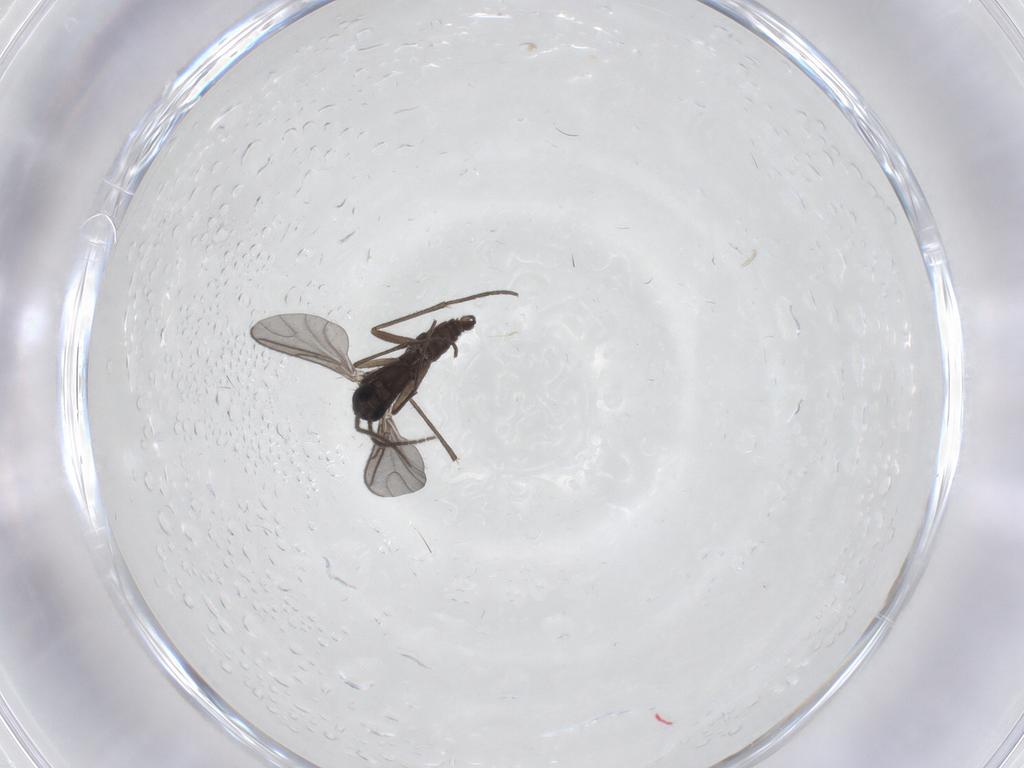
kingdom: Animalia
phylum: Arthropoda
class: Insecta
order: Diptera
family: Sciaridae
